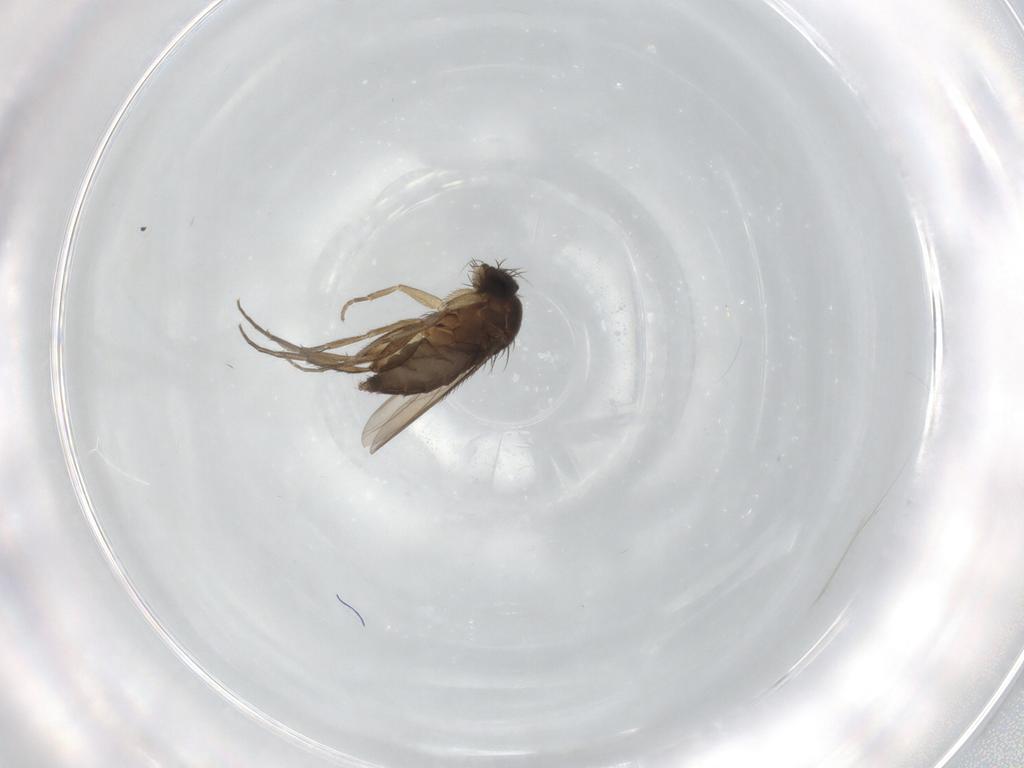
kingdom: Animalia
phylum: Arthropoda
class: Insecta
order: Diptera
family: Phoridae
